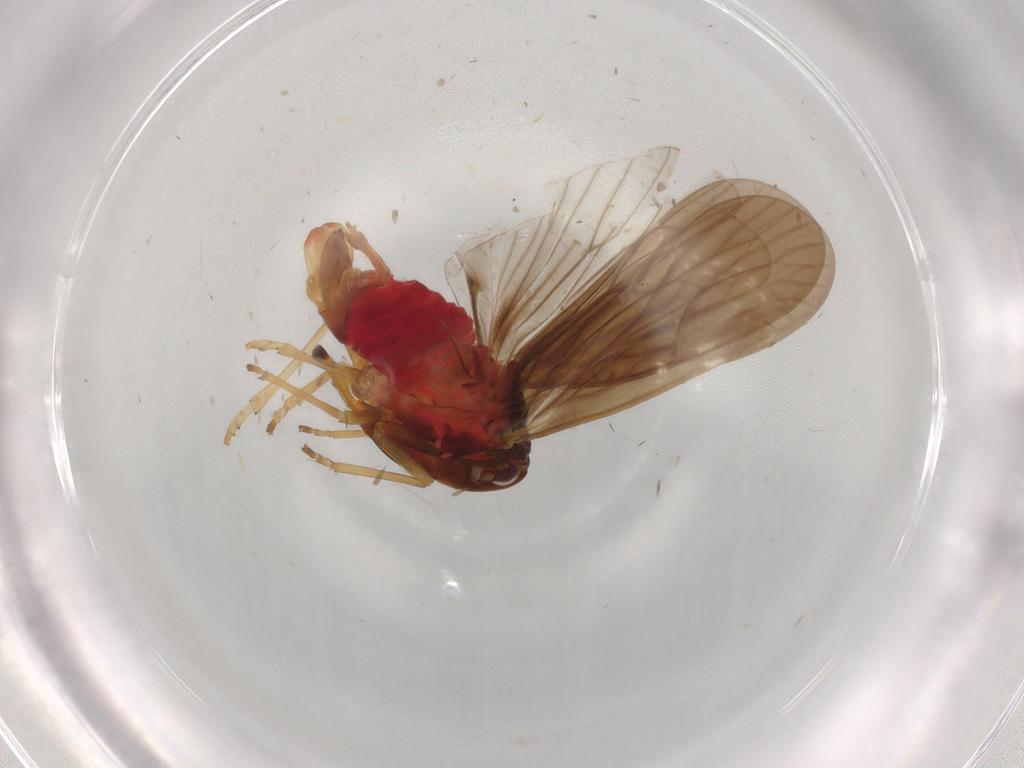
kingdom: Animalia
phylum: Arthropoda
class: Insecta
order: Hemiptera
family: Derbidae
